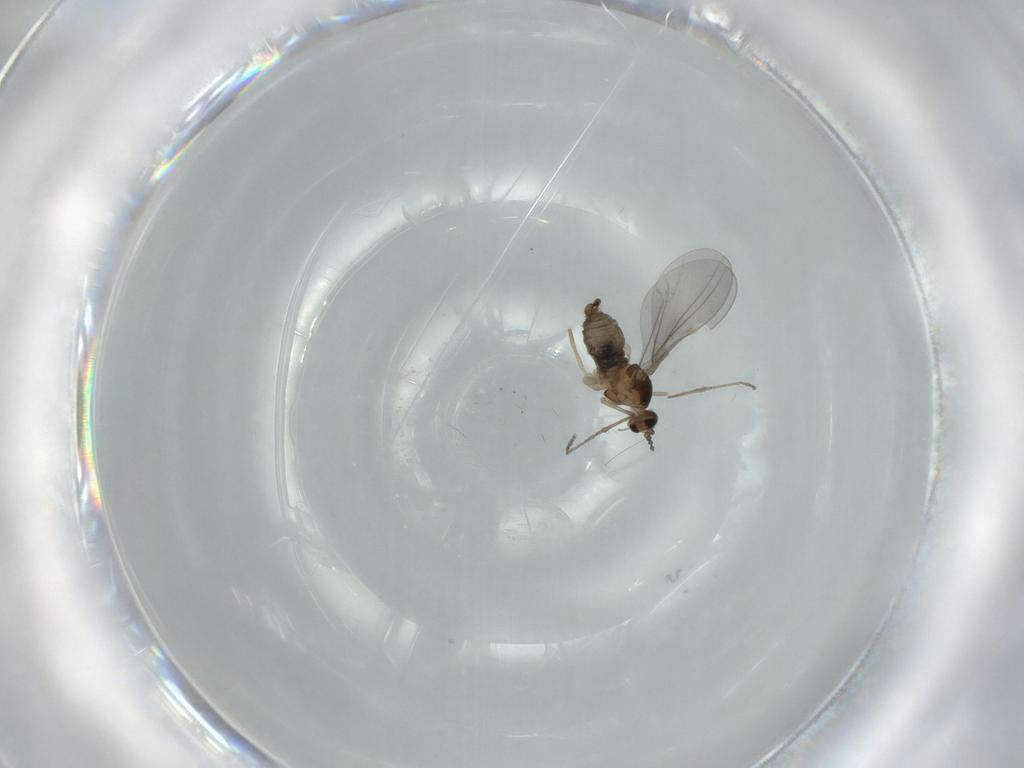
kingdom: Animalia
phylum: Arthropoda
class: Insecta
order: Diptera
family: Cecidomyiidae
